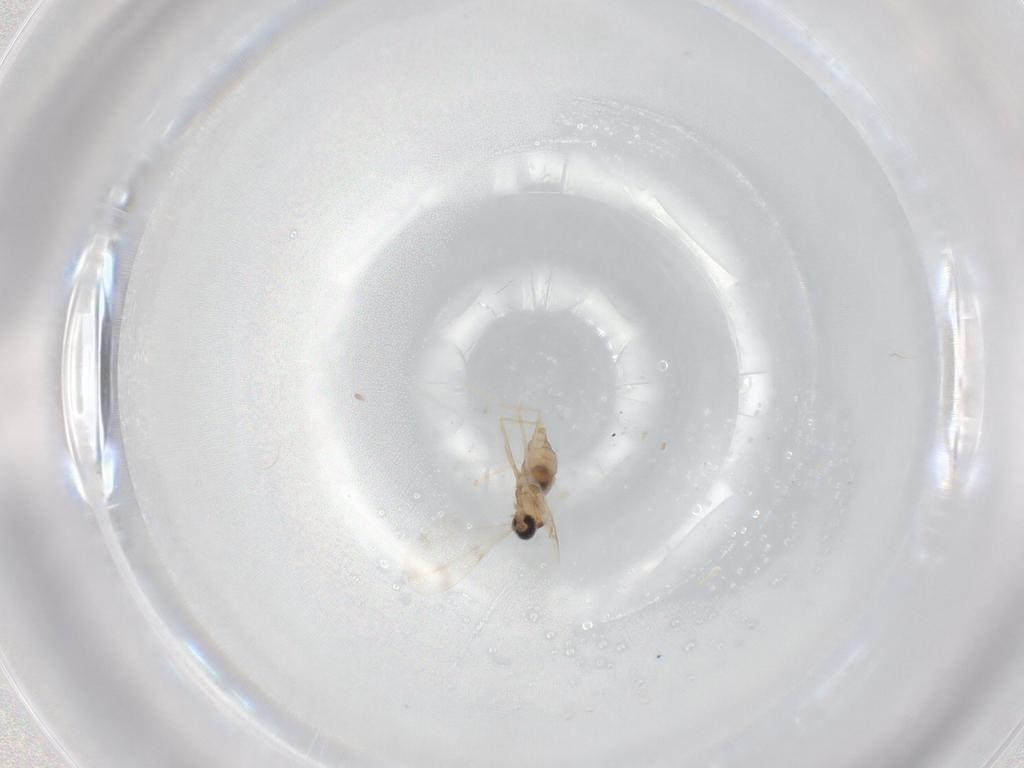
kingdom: Animalia
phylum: Arthropoda
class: Insecta
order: Diptera
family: Cecidomyiidae
